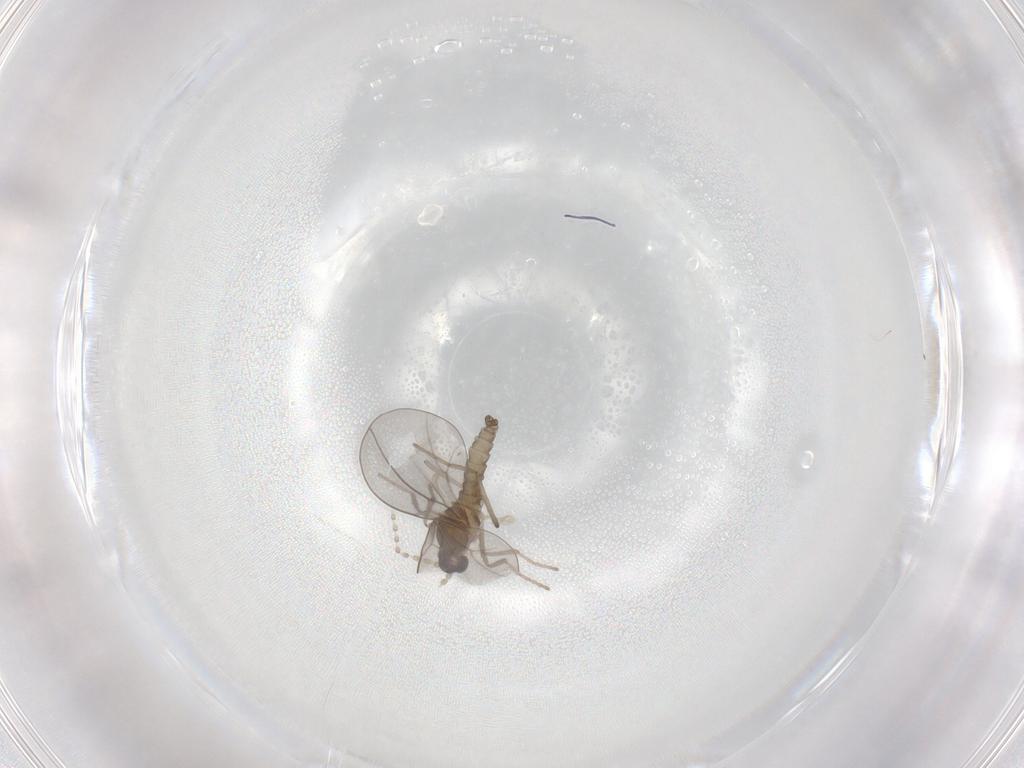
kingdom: Animalia
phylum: Arthropoda
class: Insecta
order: Diptera
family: Cecidomyiidae
